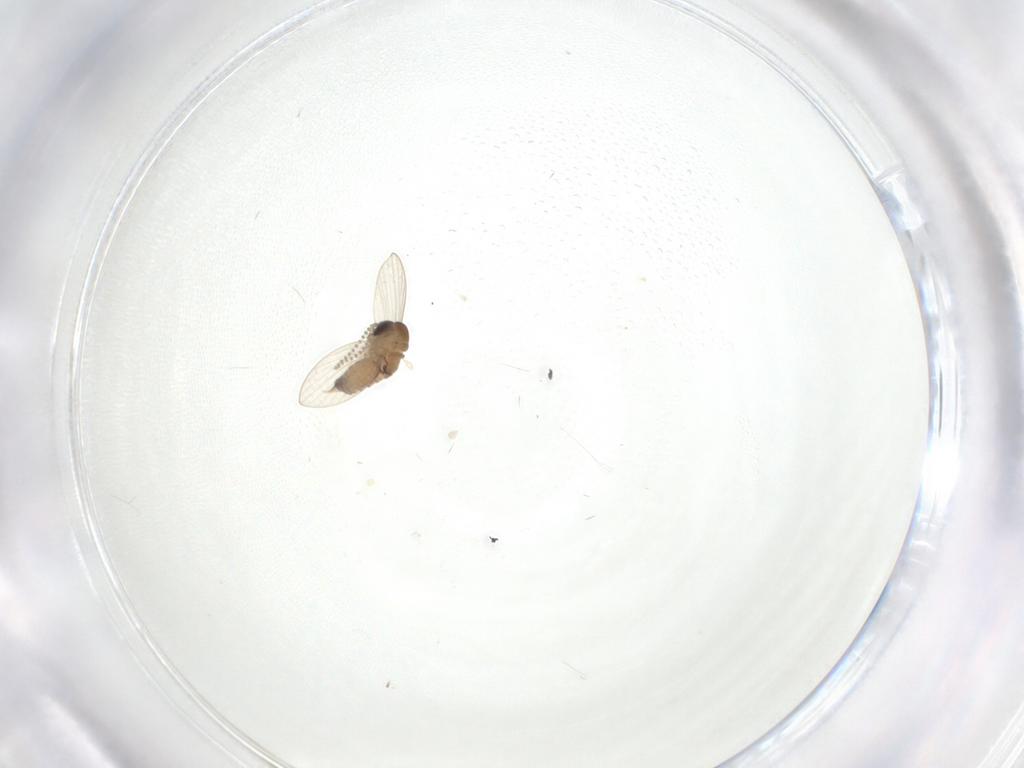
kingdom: Animalia
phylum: Arthropoda
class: Insecta
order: Diptera
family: Psychodidae
